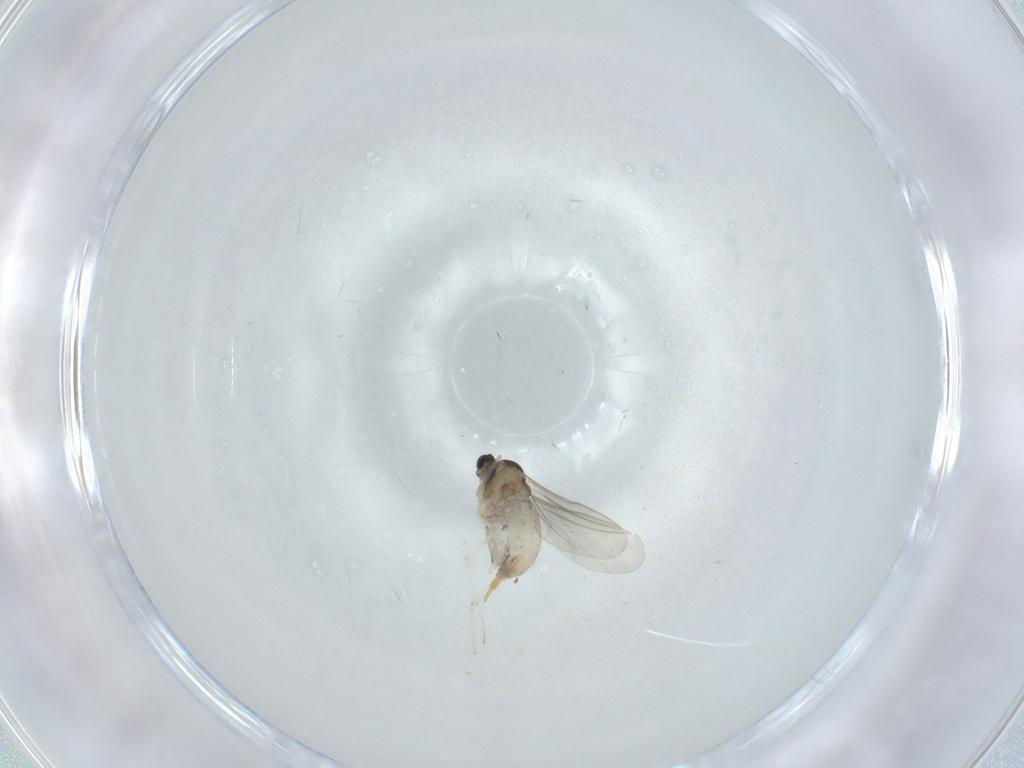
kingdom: Animalia
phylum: Arthropoda
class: Insecta
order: Diptera
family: Cecidomyiidae
